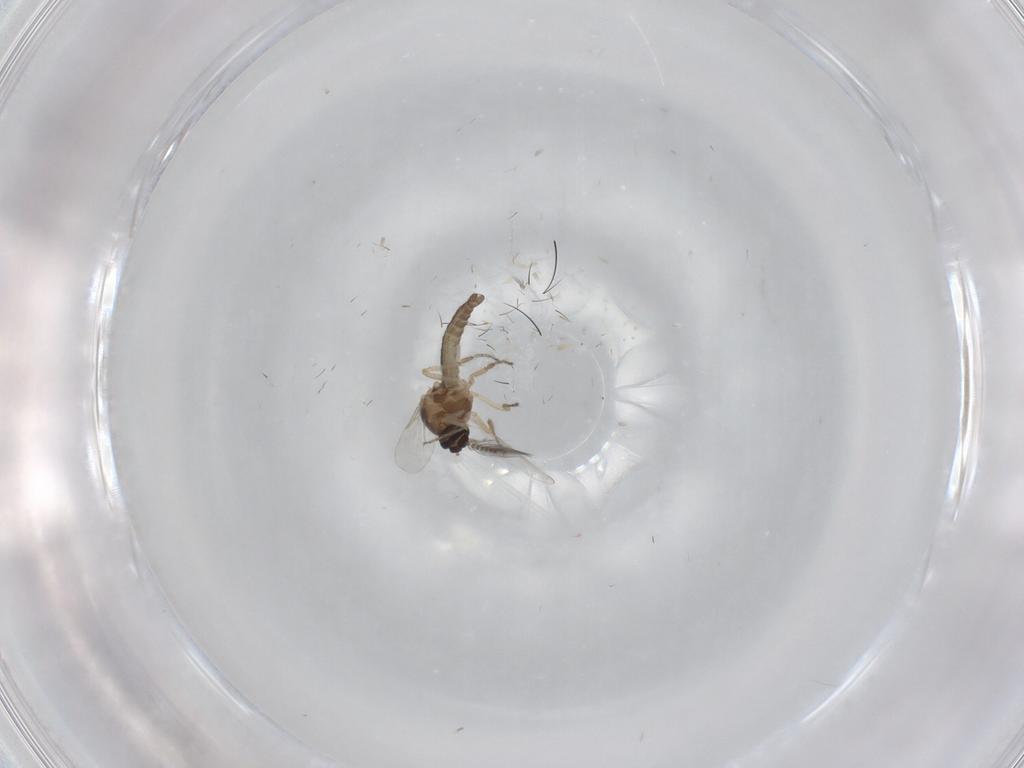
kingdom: Animalia
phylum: Arthropoda
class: Insecta
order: Diptera
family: Ceratopogonidae
